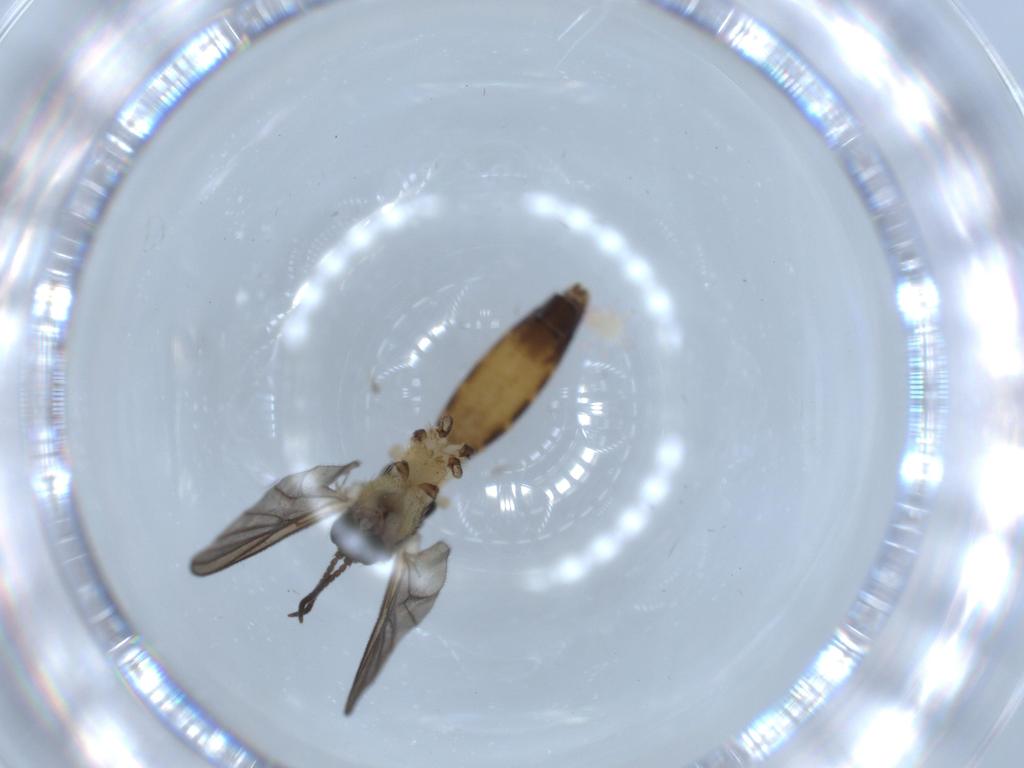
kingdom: Animalia
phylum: Arthropoda
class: Insecta
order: Diptera
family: Mycetophilidae
